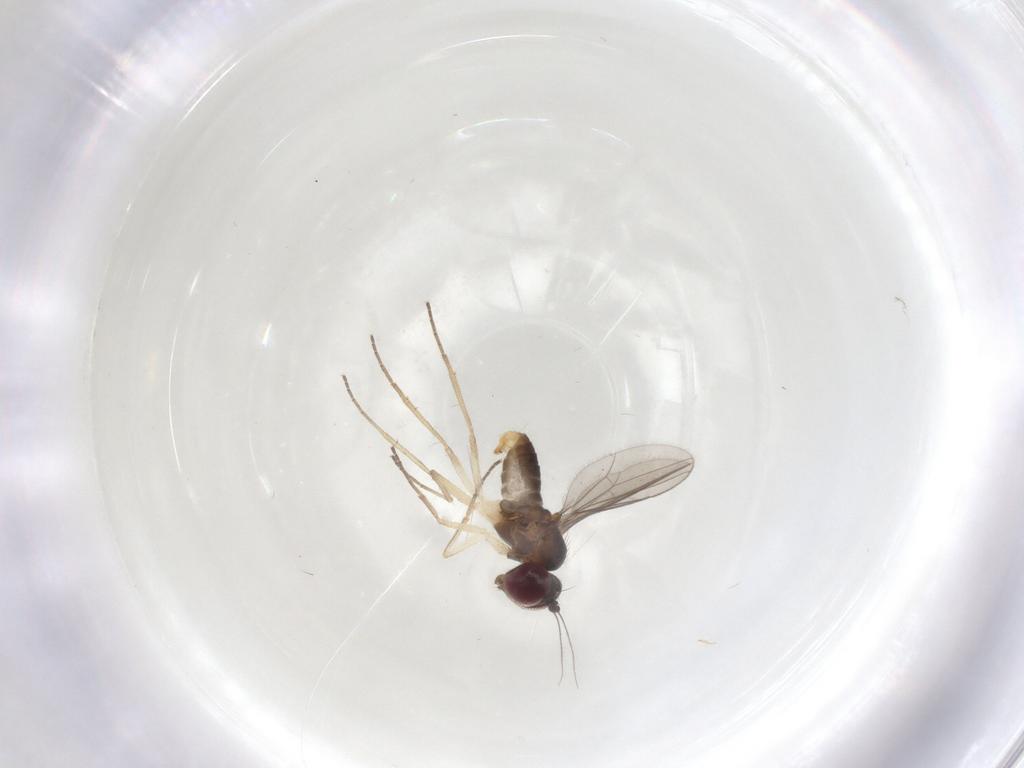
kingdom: Animalia
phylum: Arthropoda
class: Insecta
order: Diptera
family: Dolichopodidae
